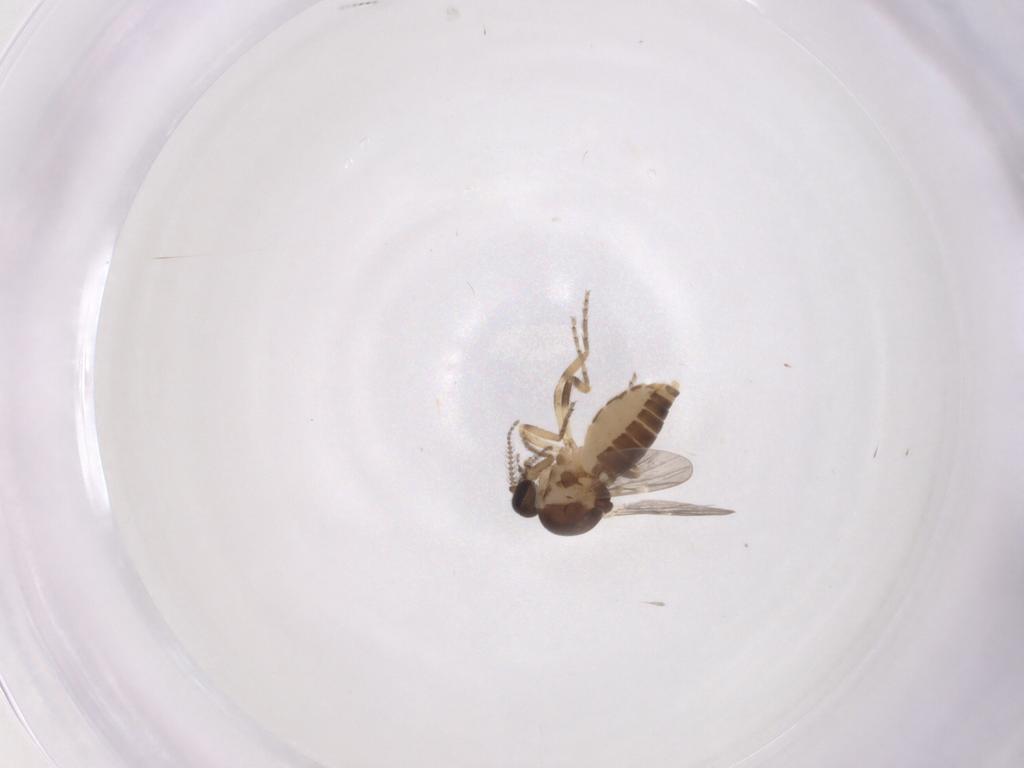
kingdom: Animalia
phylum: Arthropoda
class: Insecta
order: Diptera
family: Ceratopogonidae
